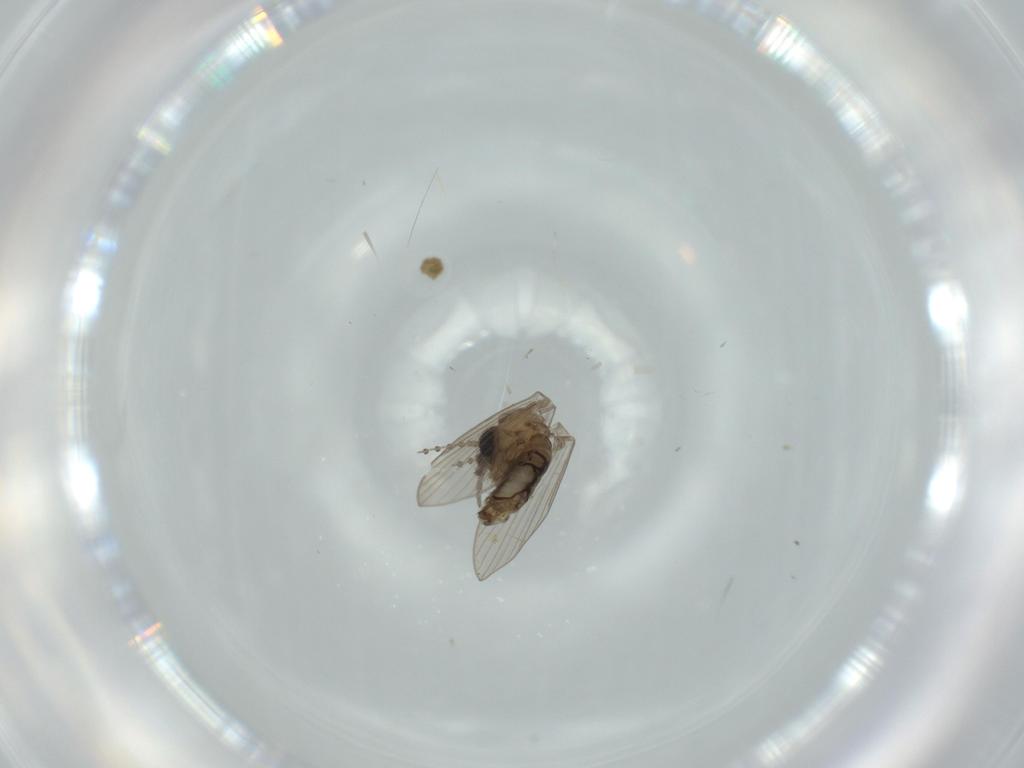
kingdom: Animalia
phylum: Arthropoda
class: Insecta
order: Diptera
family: Psychodidae
